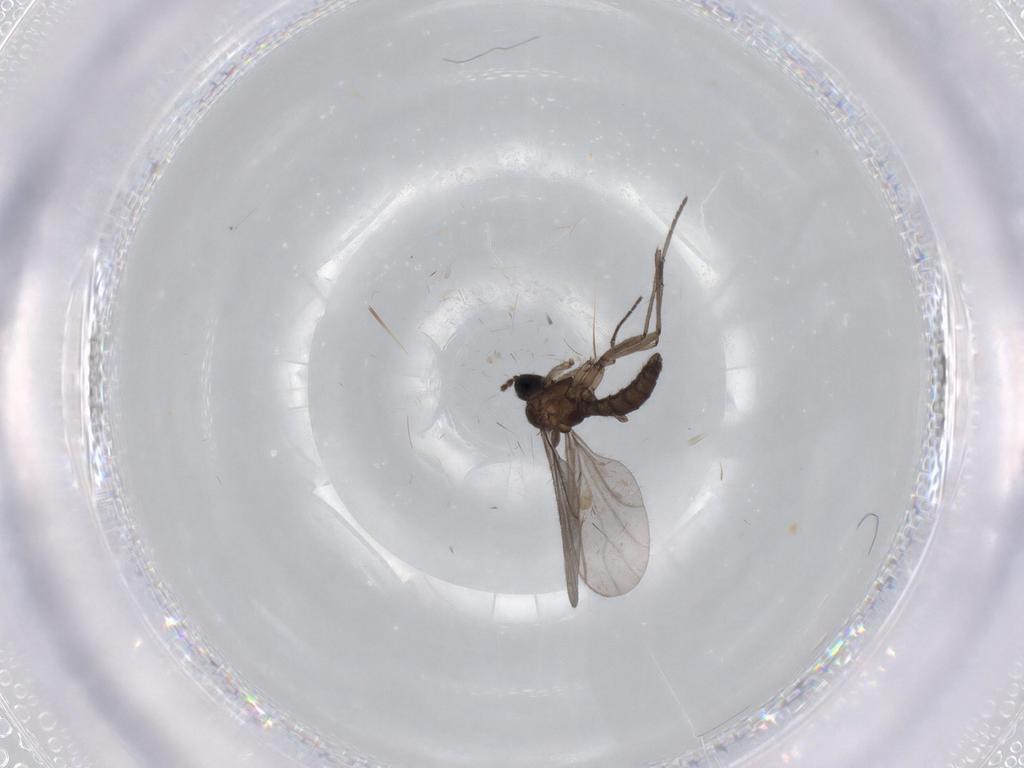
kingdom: Animalia
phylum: Arthropoda
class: Insecta
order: Diptera
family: Sciaridae
